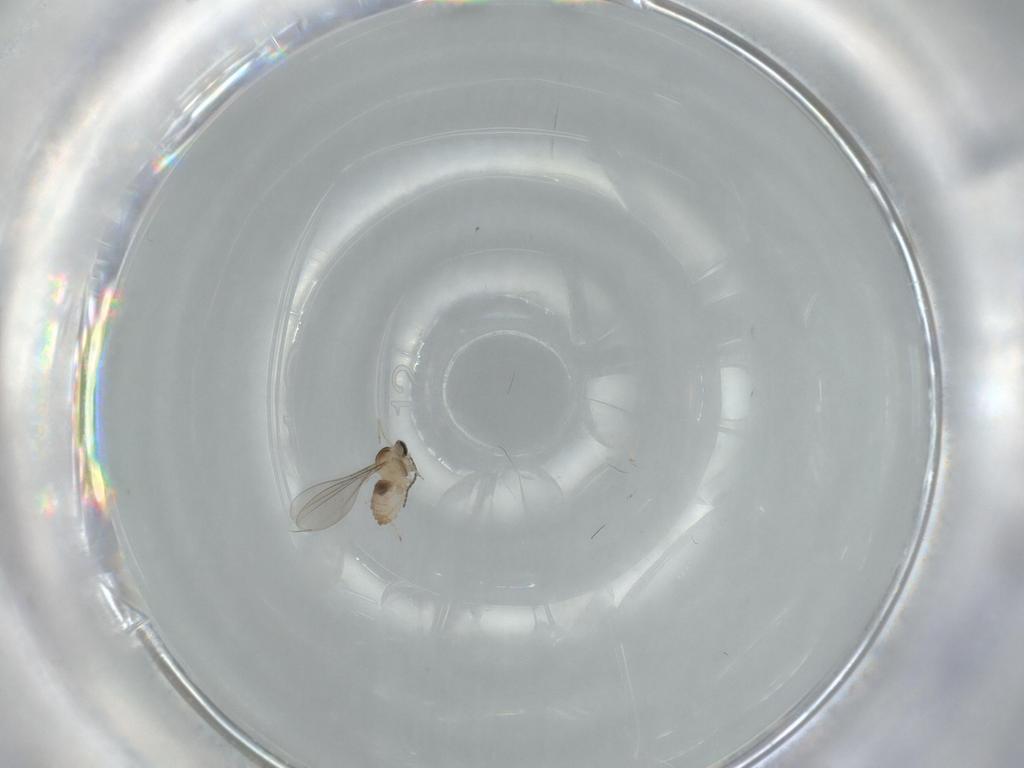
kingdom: Animalia
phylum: Arthropoda
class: Insecta
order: Diptera
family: Cecidomyiidae
